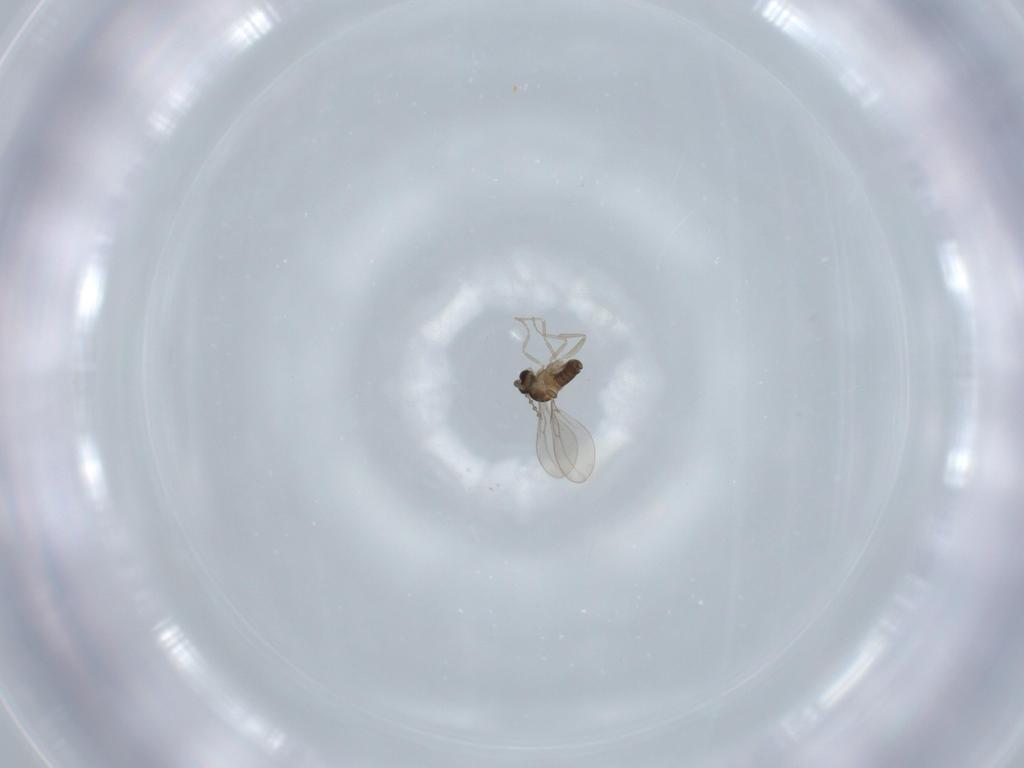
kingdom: Animalia
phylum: Arthropoda
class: Insecta
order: Diptera
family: Cecidomyiidae
